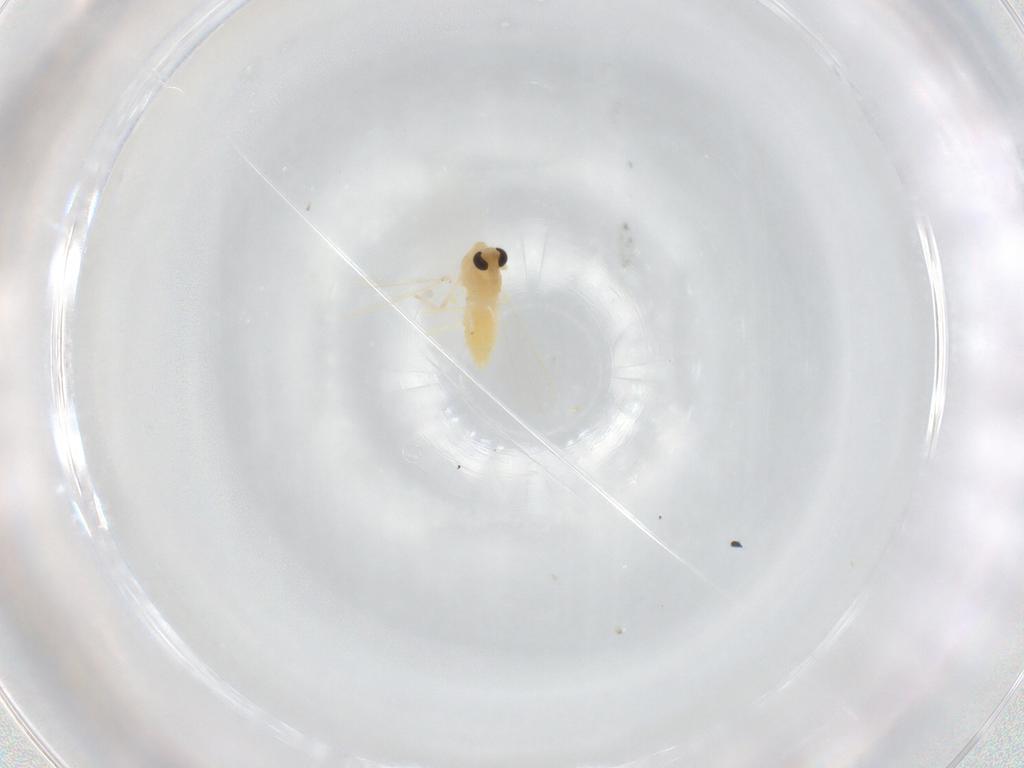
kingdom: Animalia
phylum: Arthropoda
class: Insecta
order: Diptera
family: Chironomidae
